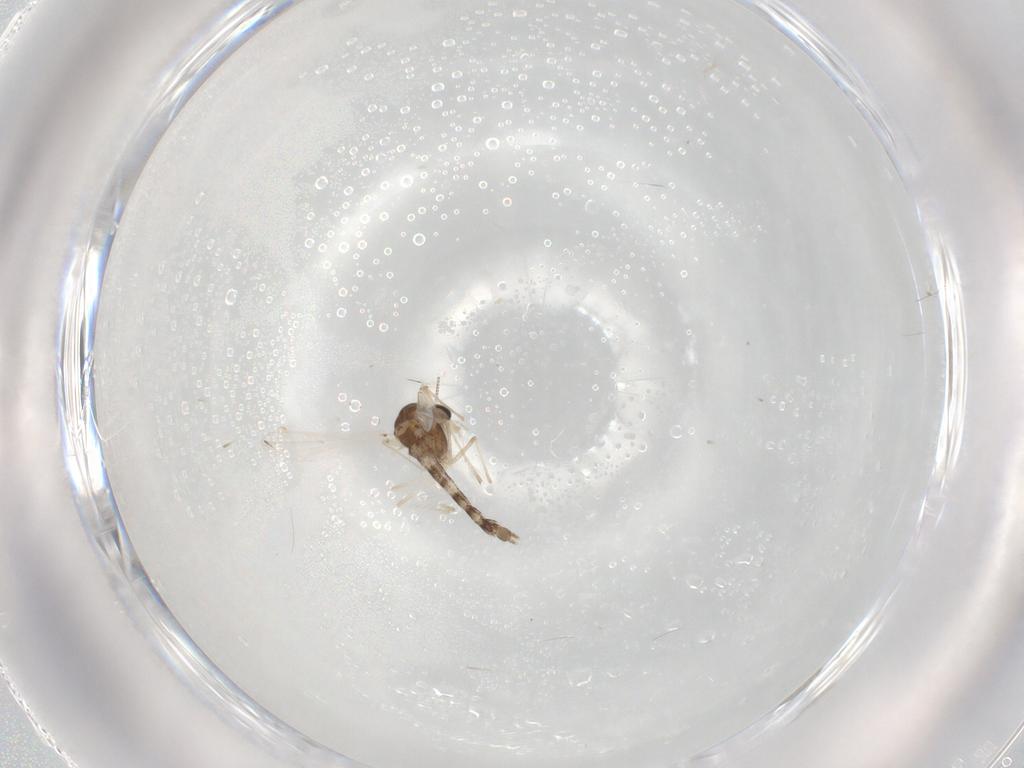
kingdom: Animalia
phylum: Arthropoda
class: Insecta
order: Diptera
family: Chironomidae
